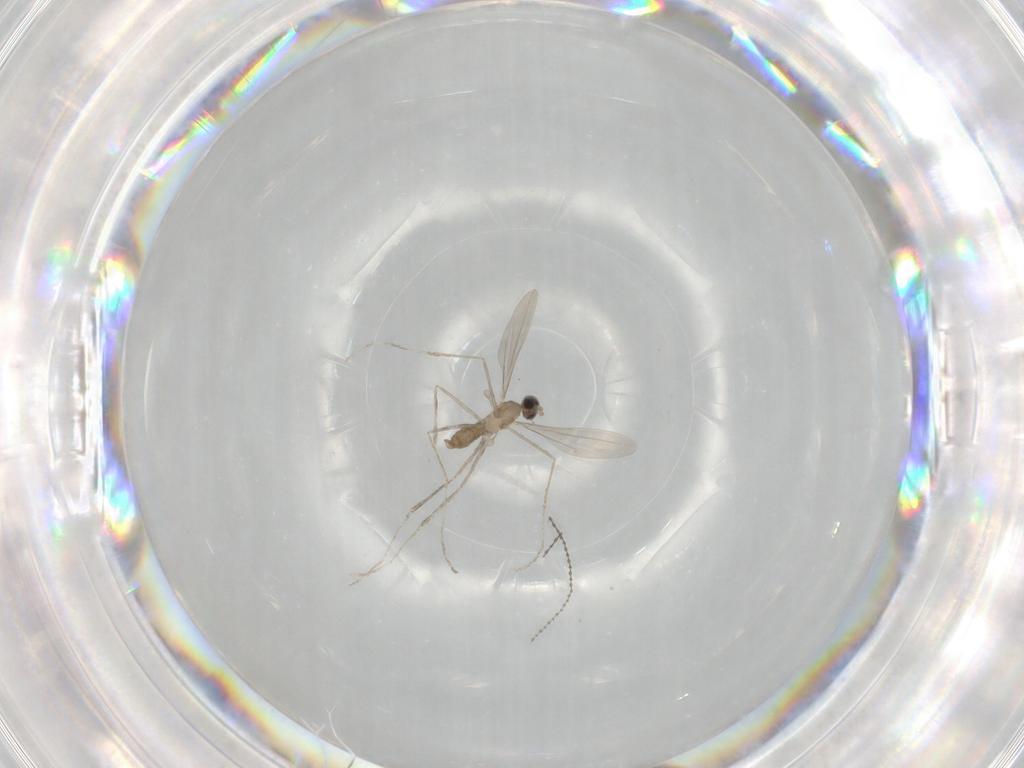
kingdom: Animalia
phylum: Arthropoda
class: Insecta
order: Diptera
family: Cecidomyiidae
